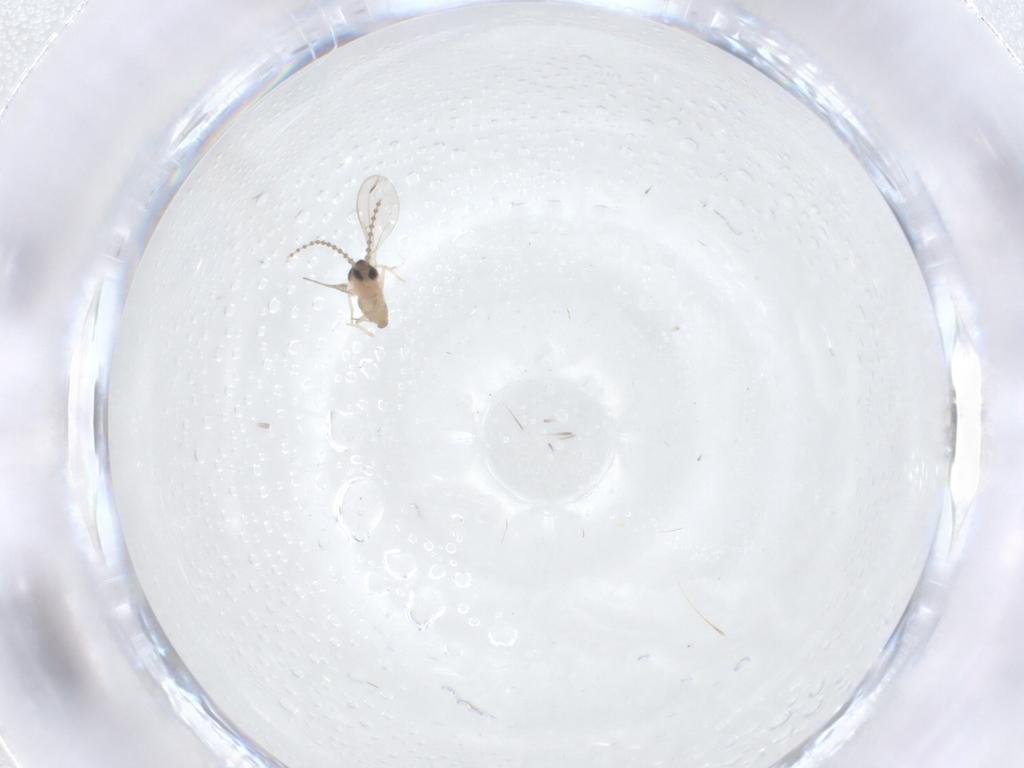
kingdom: Animalia
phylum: Arthropoda
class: Insecta
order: Diptera
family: Cecidomyiidae
